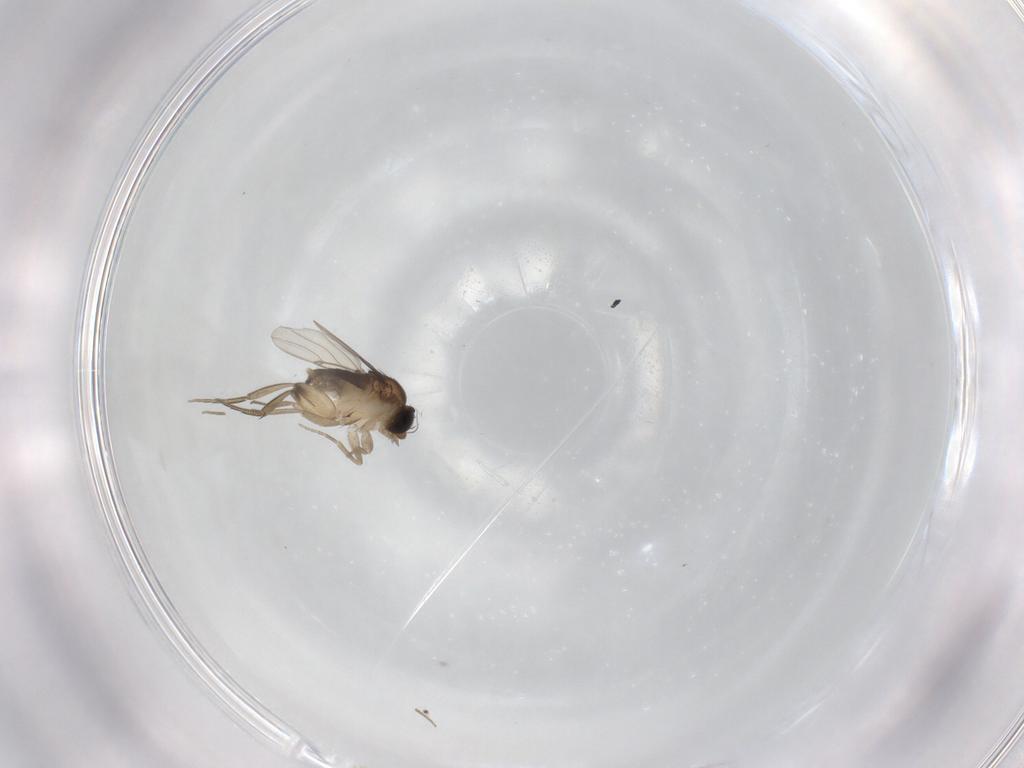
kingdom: Animalia
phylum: Arthropoda
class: Insecta
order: Diptera
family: Phoridae
